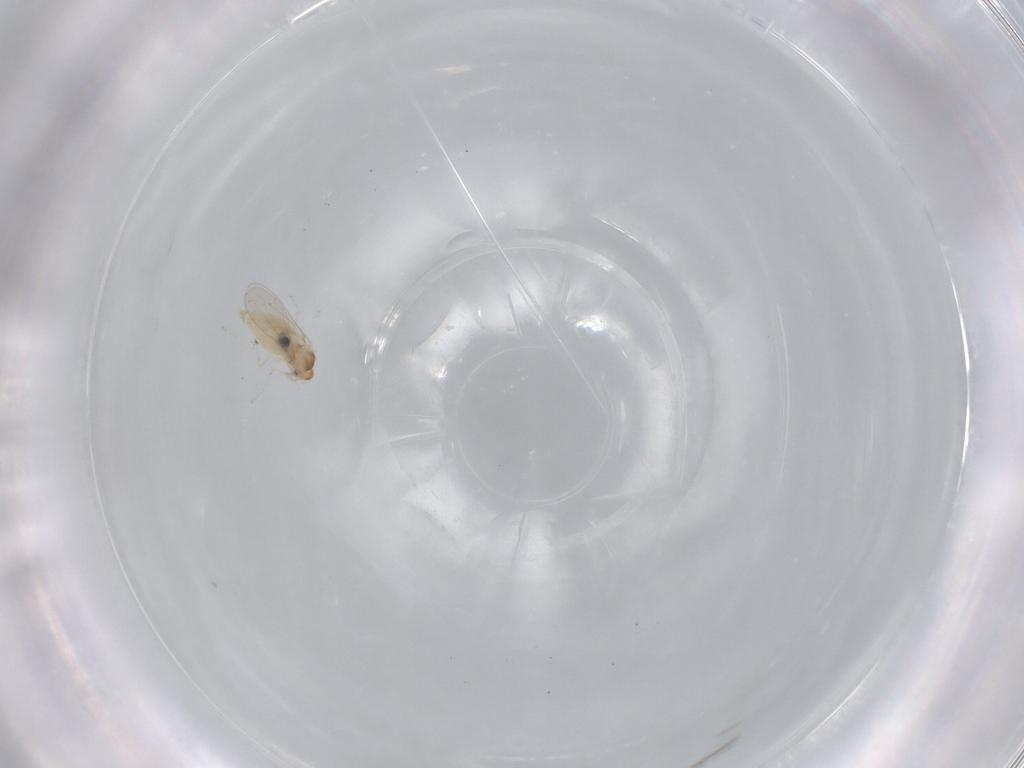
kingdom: Animalia
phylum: Arthropoda
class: Insecta
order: Diptera
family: Cecidomyiidae
